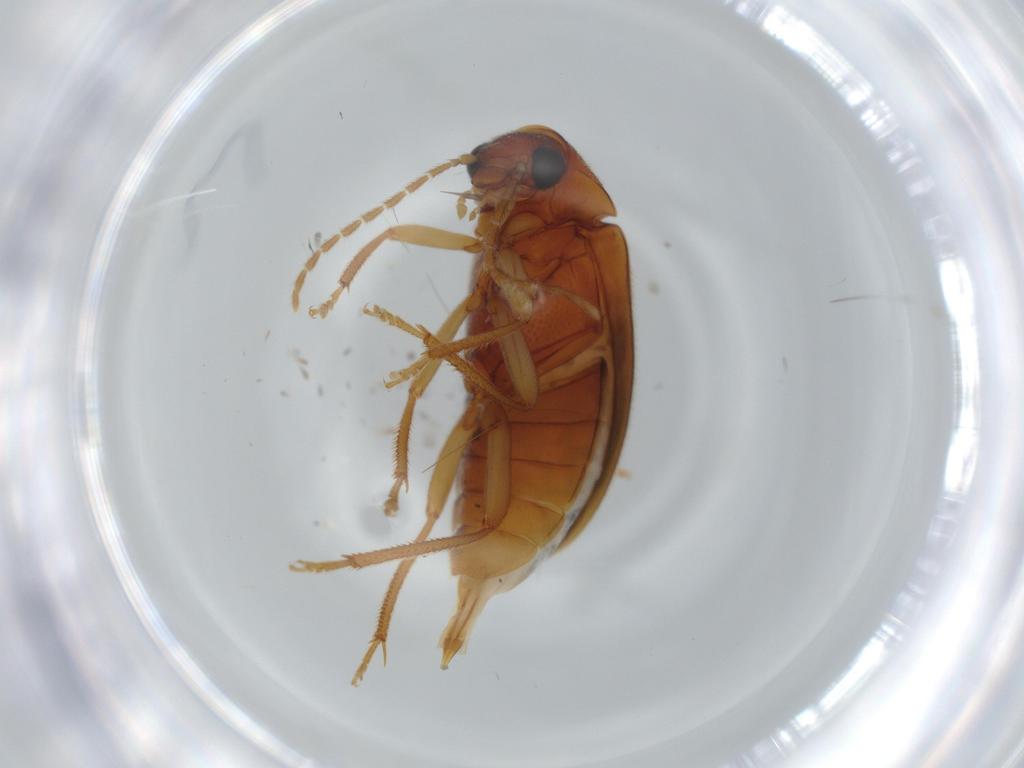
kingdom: Animalia
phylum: Arthropoda
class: Insecta
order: Coleoptera
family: Ptilodactylidae
